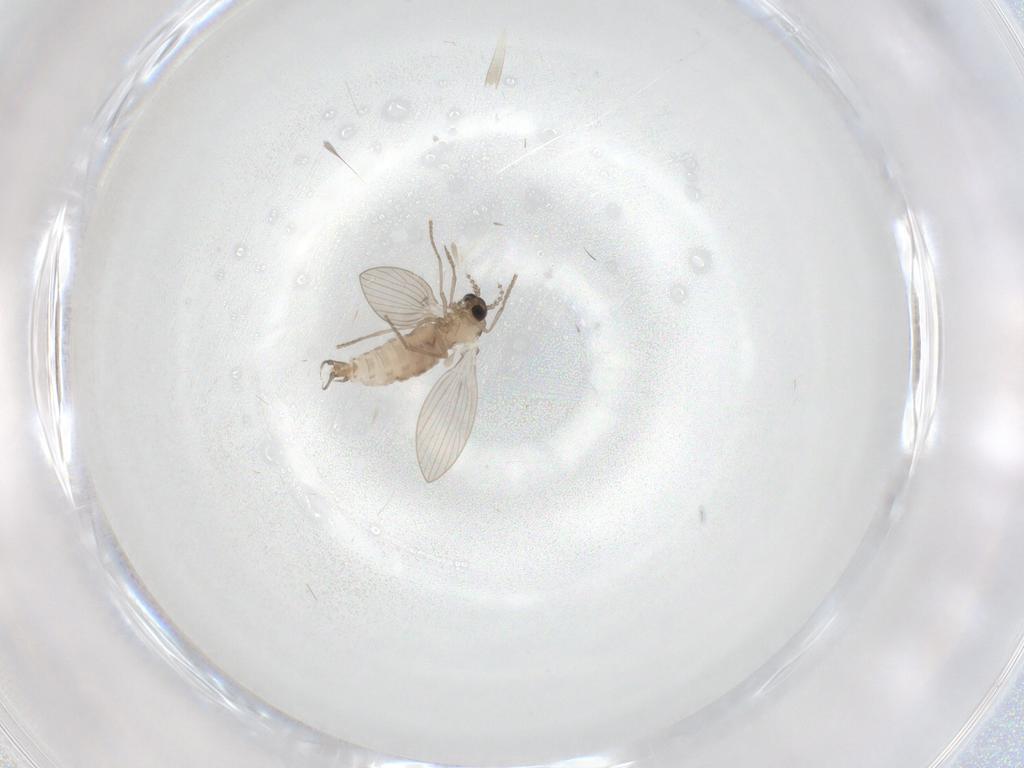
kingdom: Animalia
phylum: Arthropoda
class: Insecta
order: Diptera
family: Psychodidae
